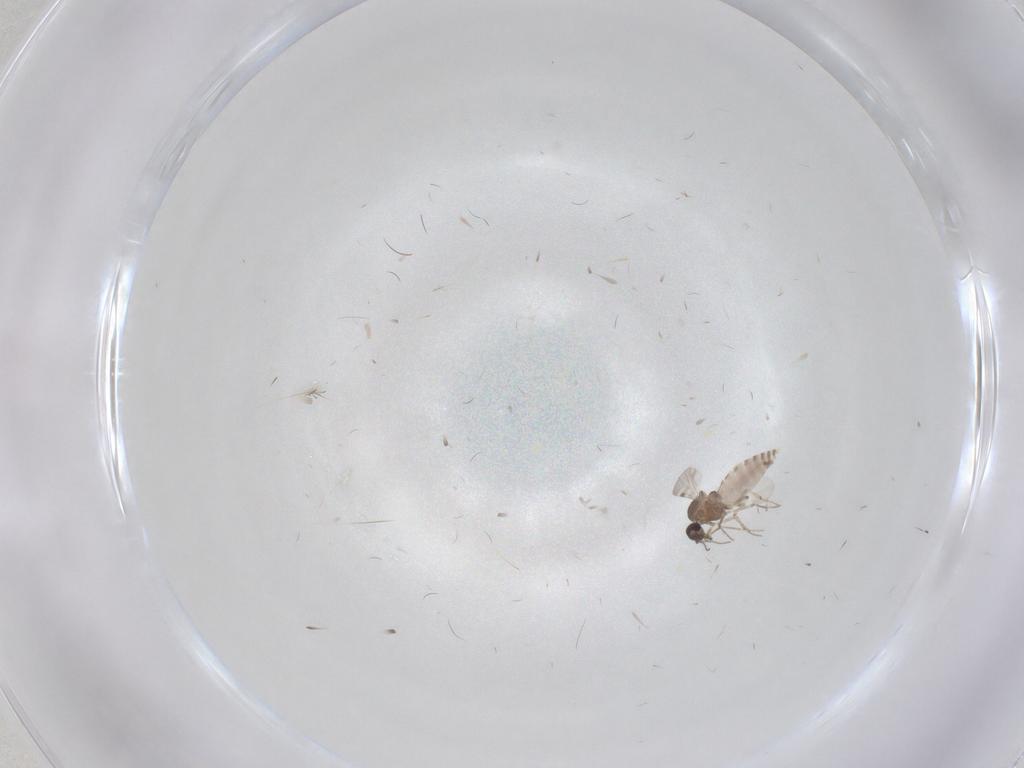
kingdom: Animalia
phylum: Arthropoda
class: Insecta
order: Diptera
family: Sphaeroceridae
